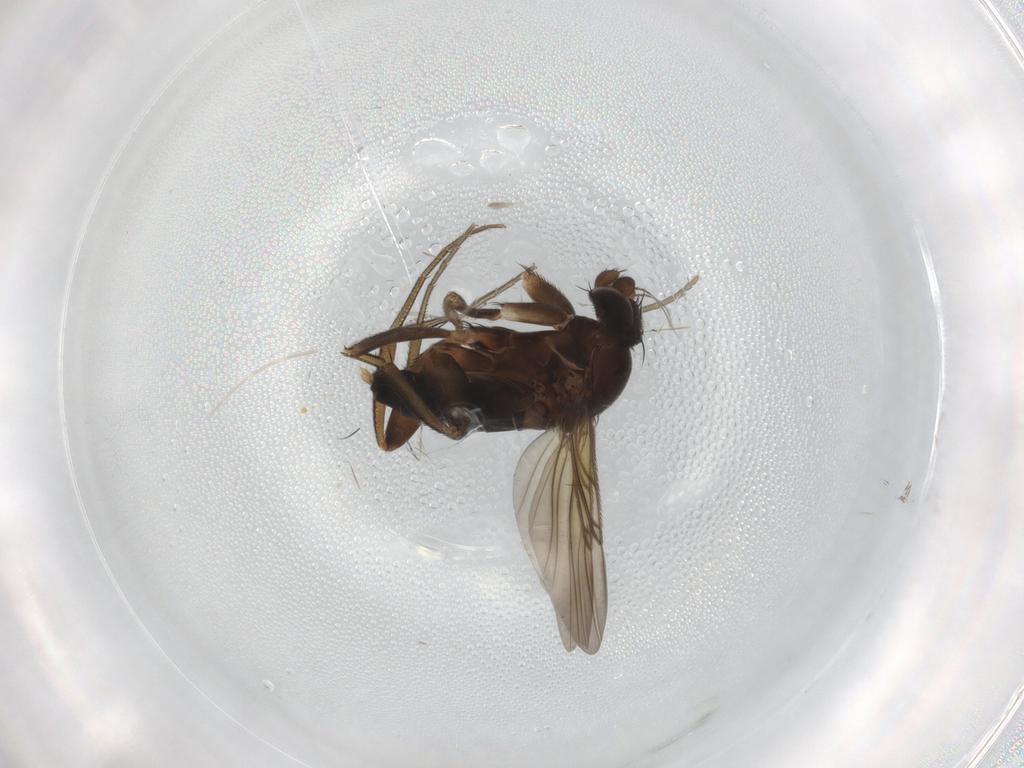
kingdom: Animalia
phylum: Arthropoda
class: Insecta
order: Diptera
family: Phoridae
